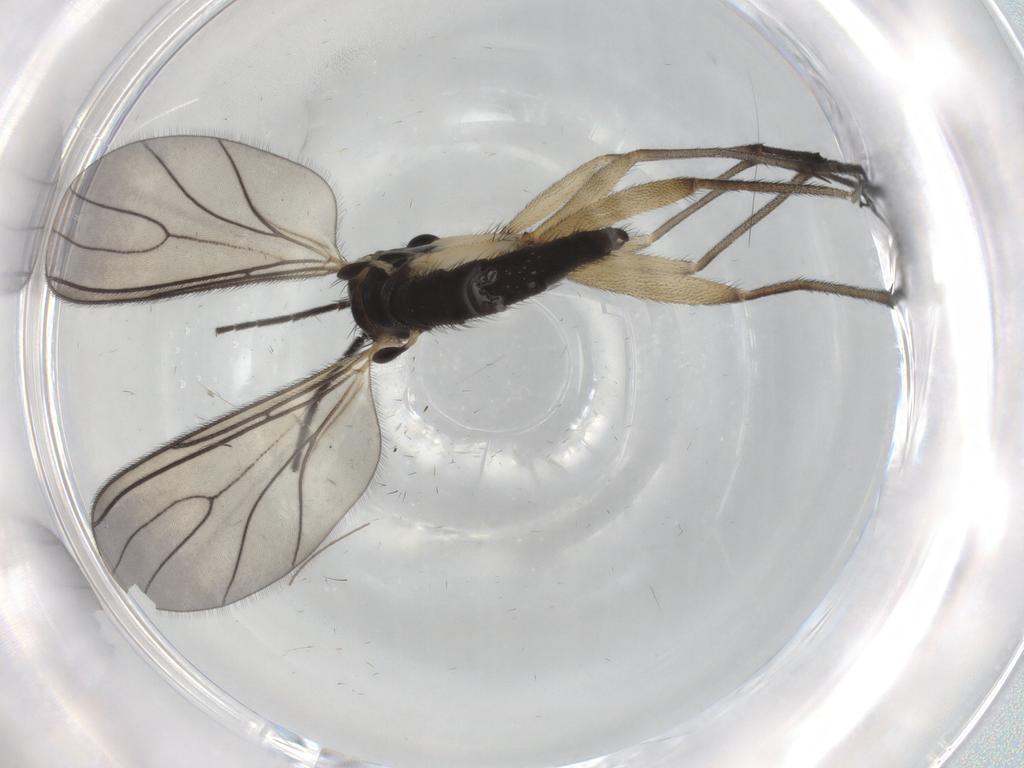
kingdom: Animalia
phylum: Arthropoda
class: Insecta
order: Diptera
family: Sciaridae
